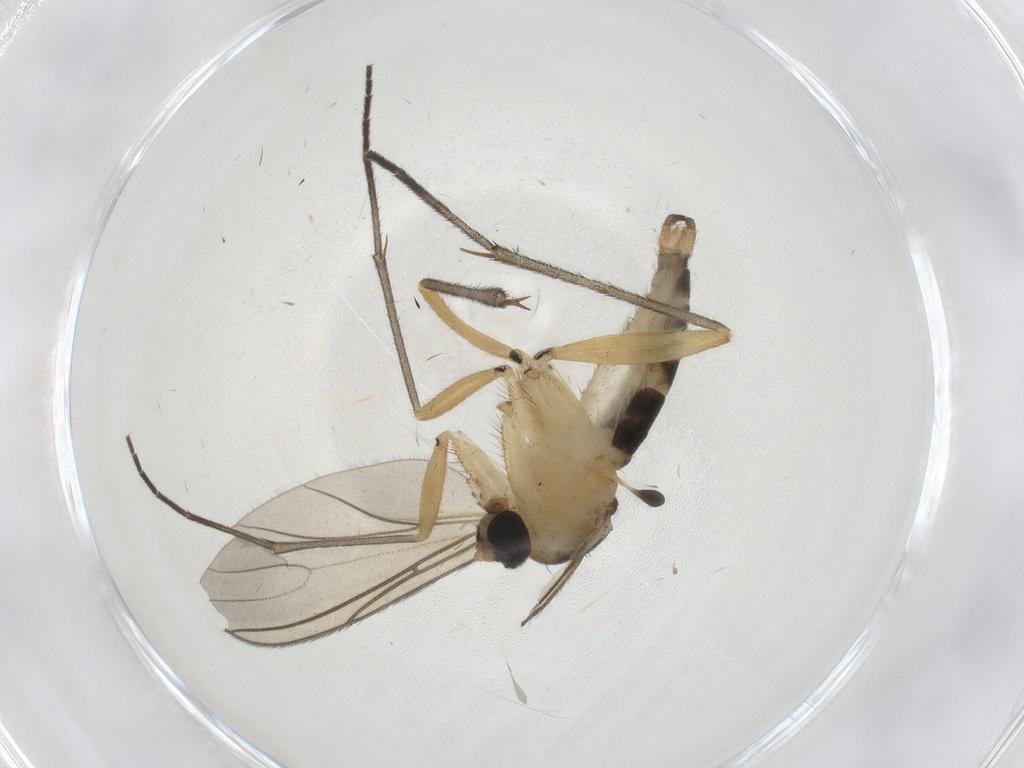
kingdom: Animalia
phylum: Arthropoda
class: Insecta
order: Diptera
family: Sciaridae
